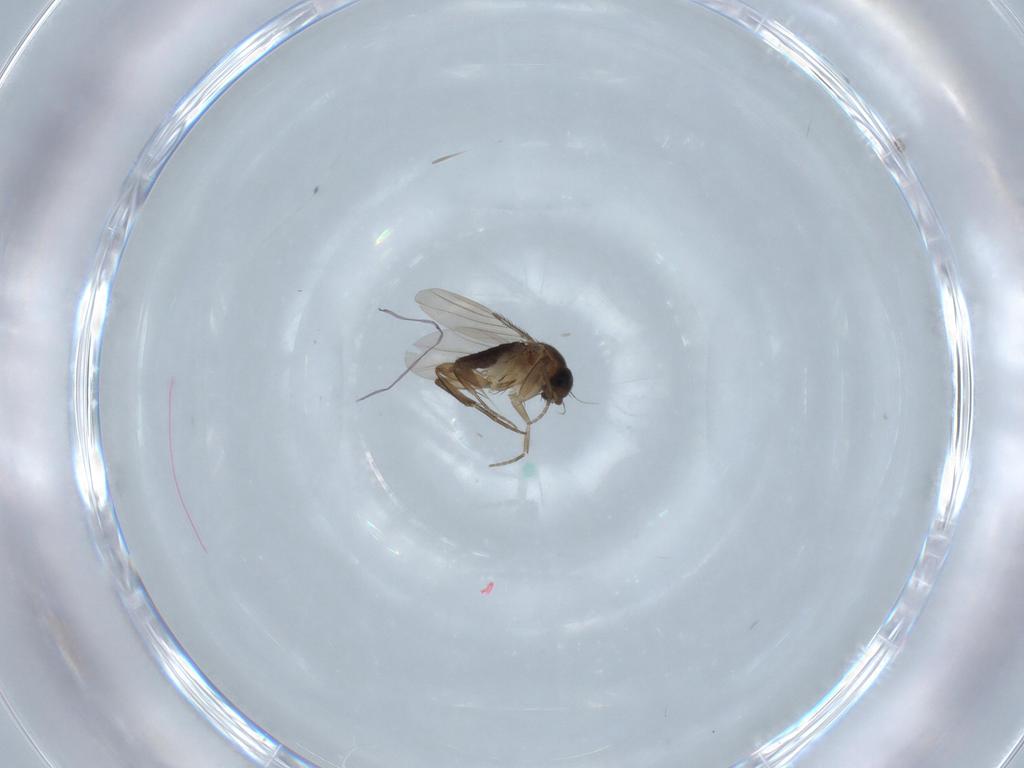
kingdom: Animalia
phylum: Arthropoda
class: Insecta
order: Diptera
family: Phoridae
